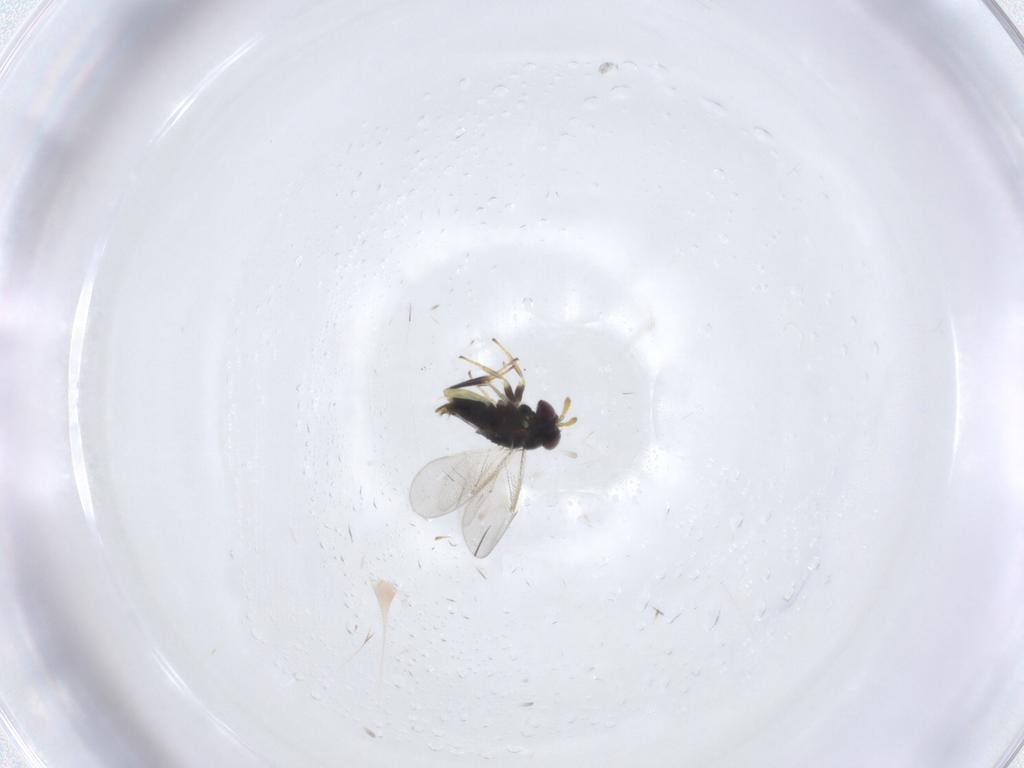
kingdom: Animalia
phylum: Arthropoda
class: Insecta
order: Hymenoptera
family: Aphelinidae
